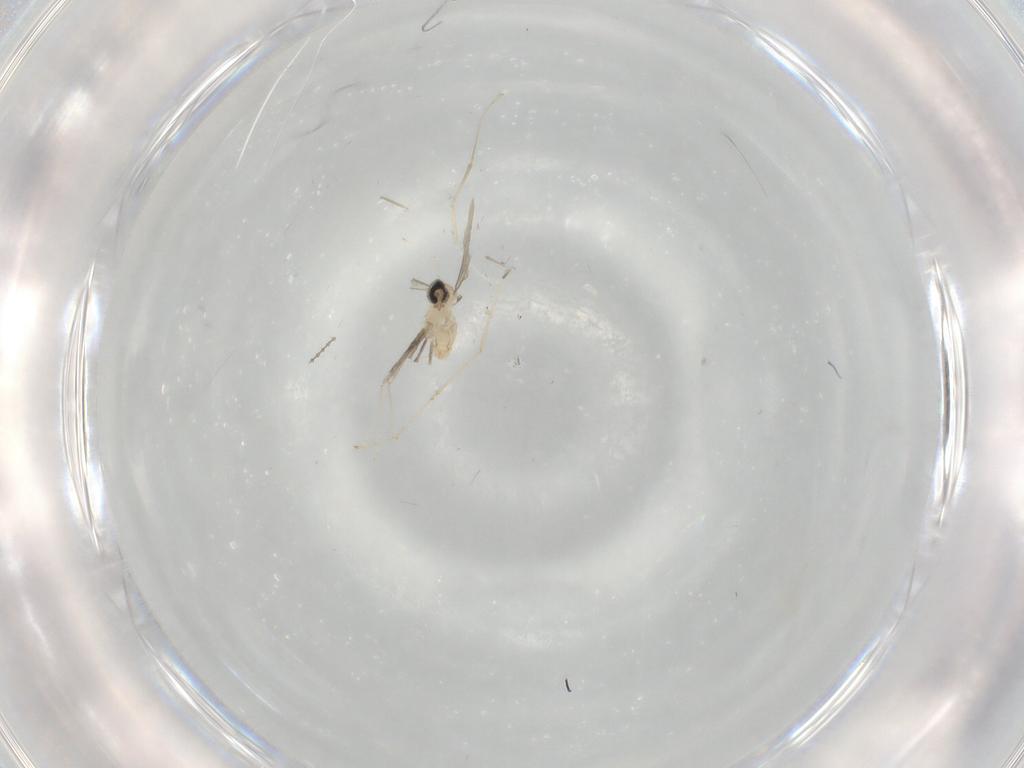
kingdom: Animalia
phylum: Arthropoda
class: Insecta
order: Diptera
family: Cecidomyiidae
